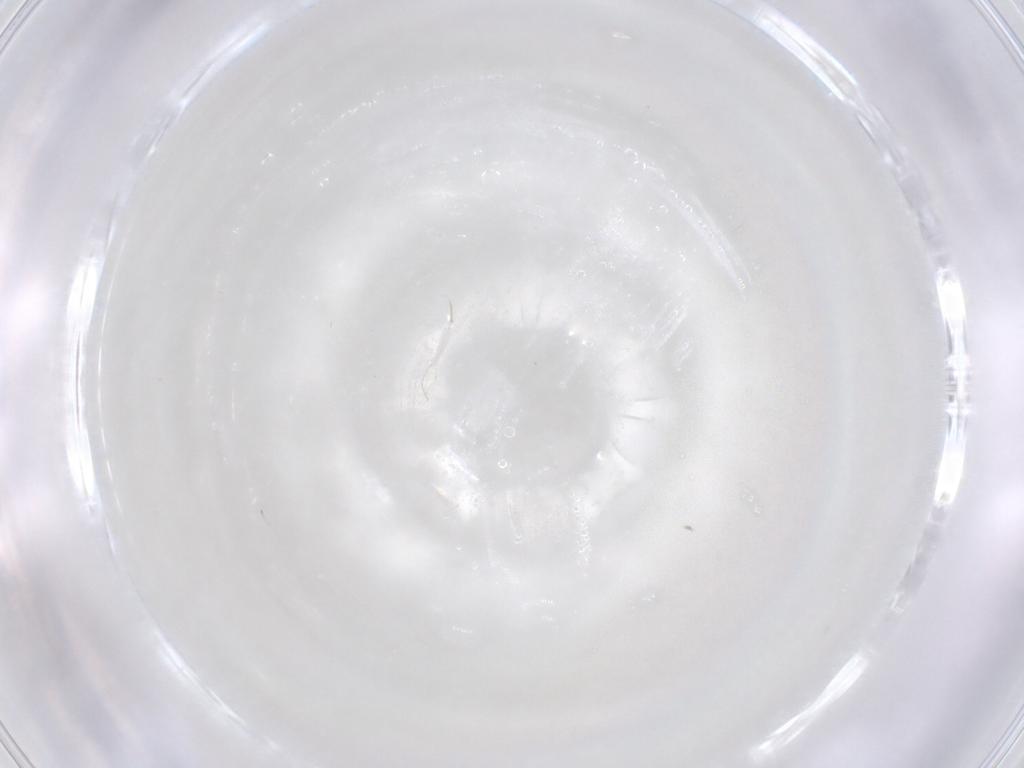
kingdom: Animalia
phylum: Arthropoda
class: Insecta
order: Diptera
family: Phoridae
